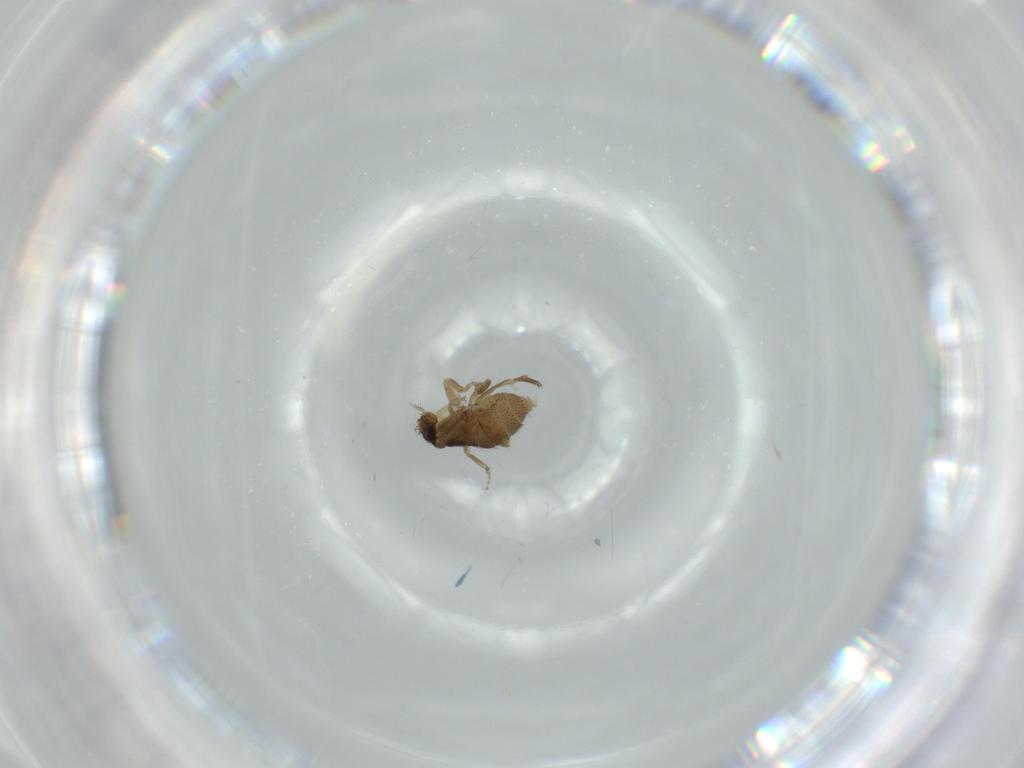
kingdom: Animalia
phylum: Arthropoda
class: Insecta
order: Diptera
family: Phoridae
